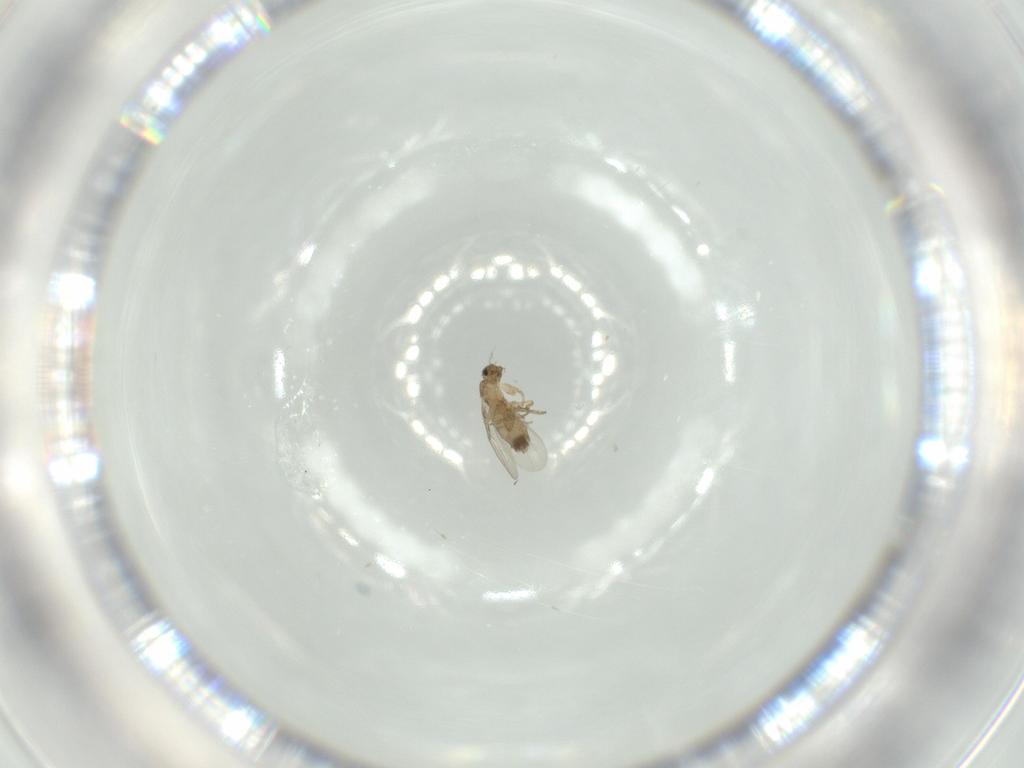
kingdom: Animalia
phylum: Arthropoda
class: Insecta
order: Diptera
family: Phoridae
